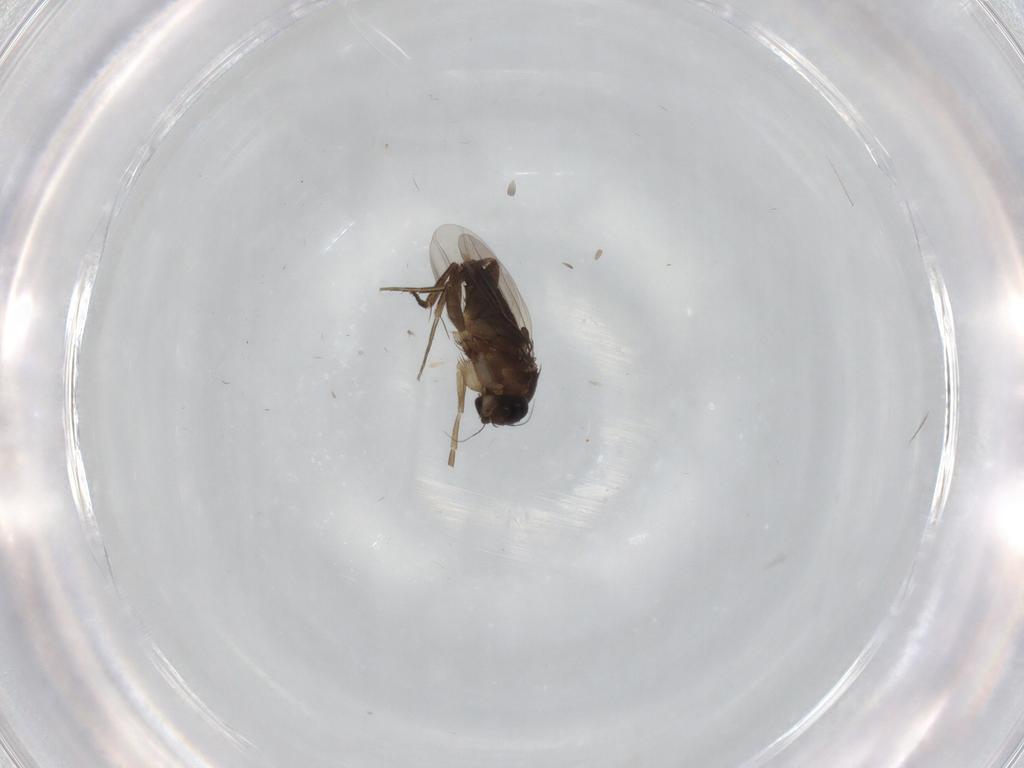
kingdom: Animalia
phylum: Arthropoda
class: Insecta
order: Diptera
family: Phoridae
